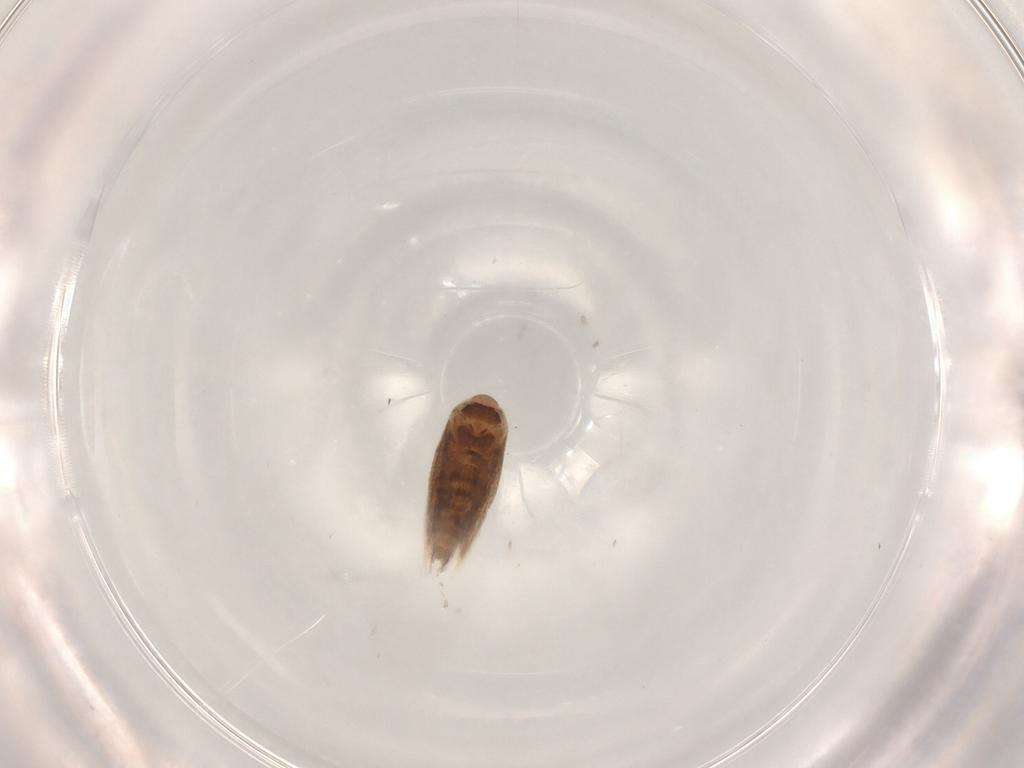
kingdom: Animalia
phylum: Arthropoda
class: Insecta
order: Lepidoptera
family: Lyonetiidae
